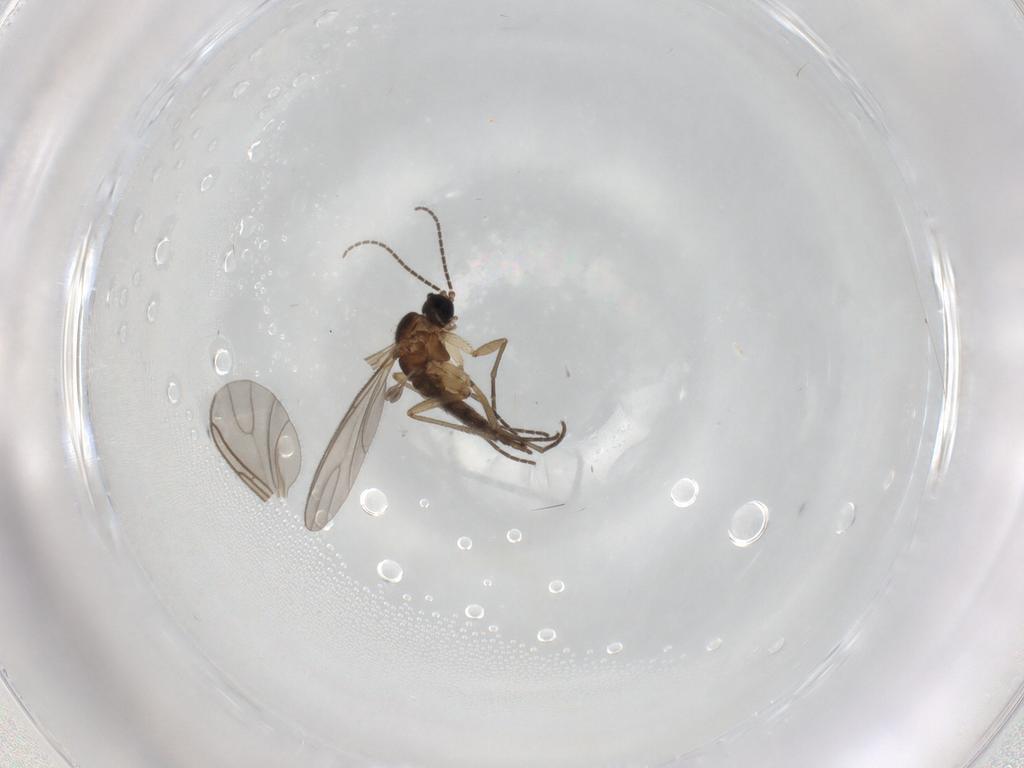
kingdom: Animalia
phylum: Arthropoda
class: Insecta
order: Diptera
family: Sciaridae
